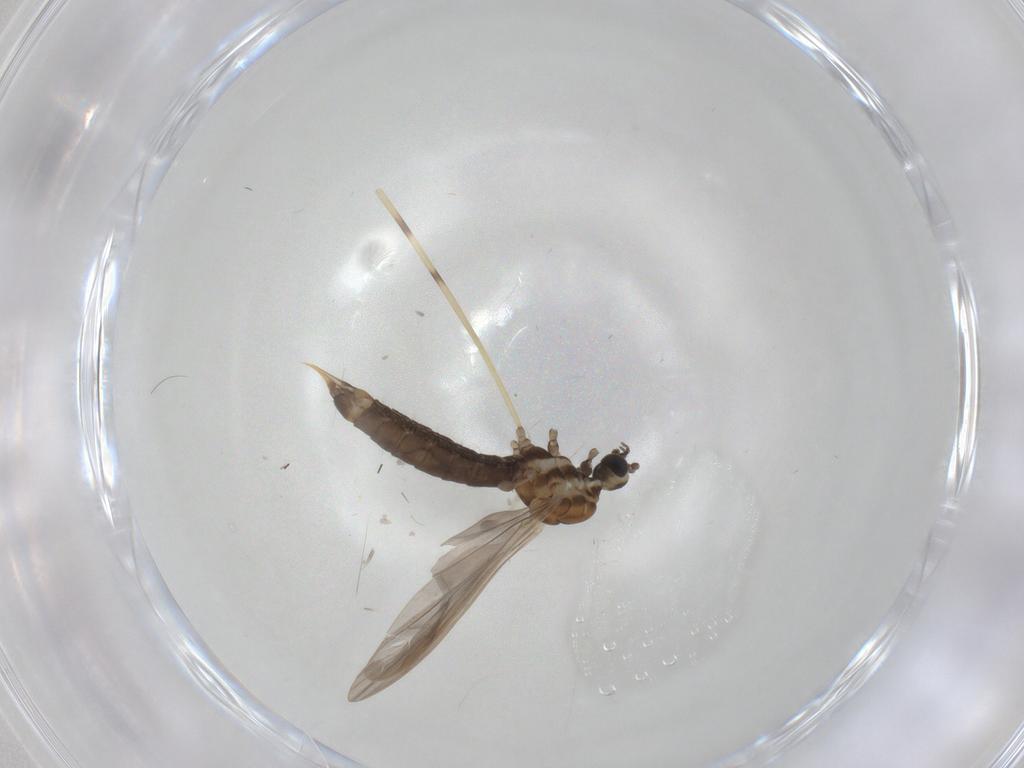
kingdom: Animalia
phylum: Arthropoda
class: Insecta
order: Diptera
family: Limoniidae
